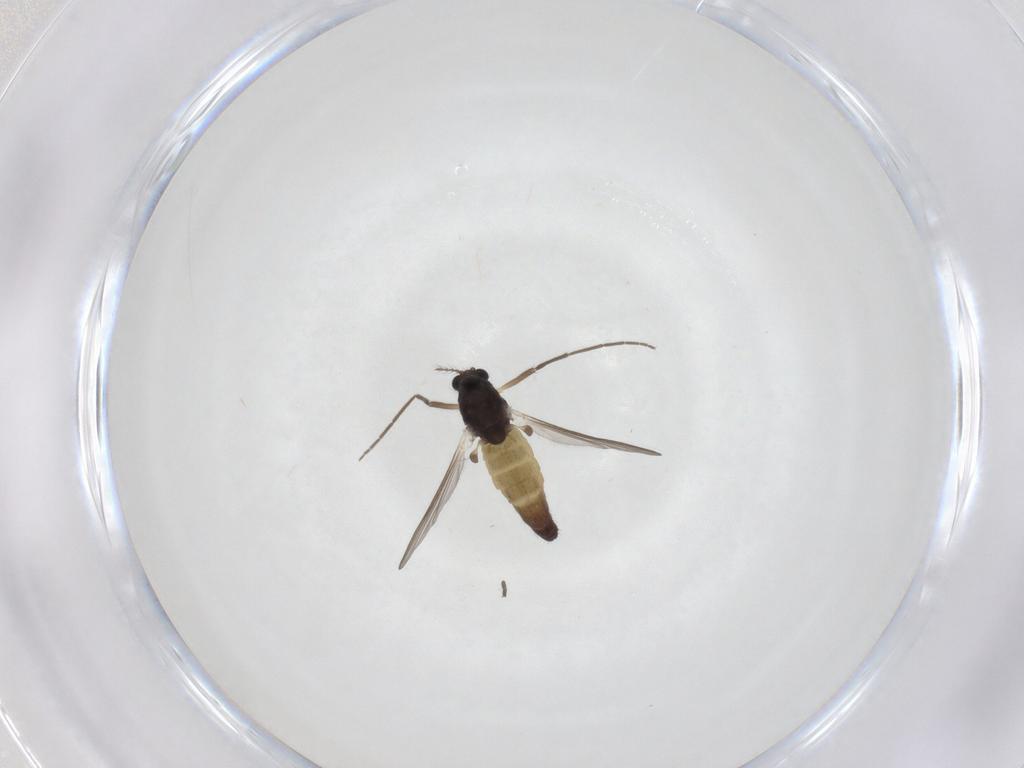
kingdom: Animalia
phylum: Arthropoda
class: Insecta
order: Diptera
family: Chironomidae
